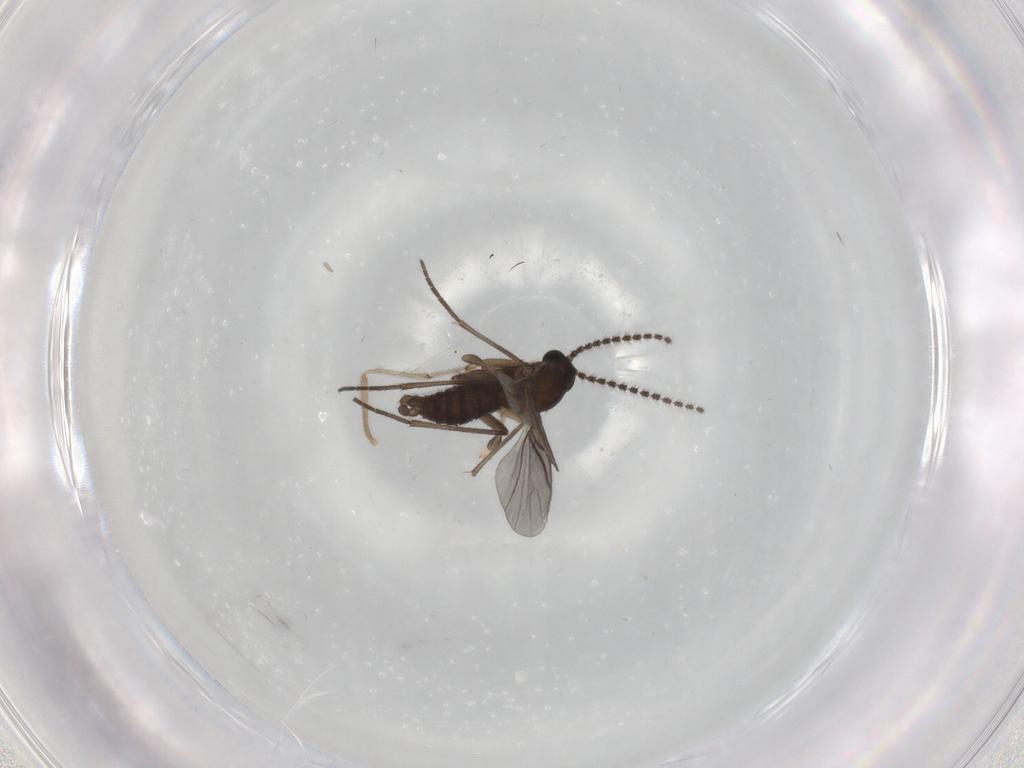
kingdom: Animalia
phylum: Arthropoda
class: Insecta
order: Diptera
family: Sciaridae
